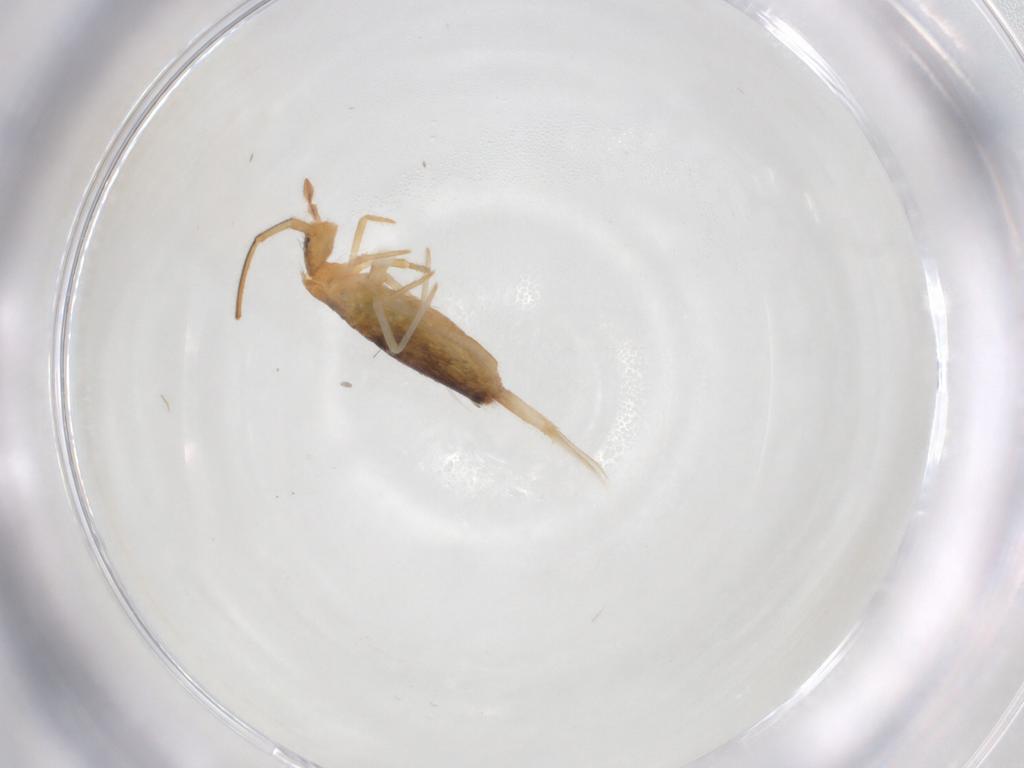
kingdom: Animalia
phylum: Arthropoda
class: Collembola
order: Entomobryomorpha
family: Entomobryidae
